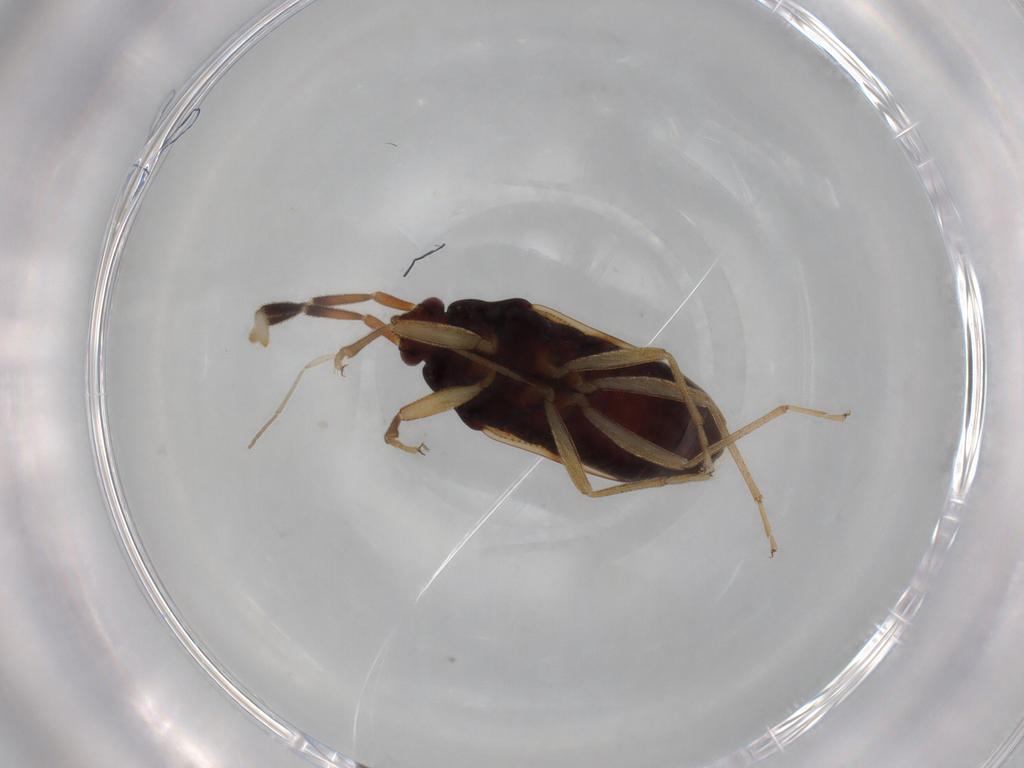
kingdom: Animalia
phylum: Arthropoda
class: Insecta
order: Hemiptera
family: Rhyparochromidae
